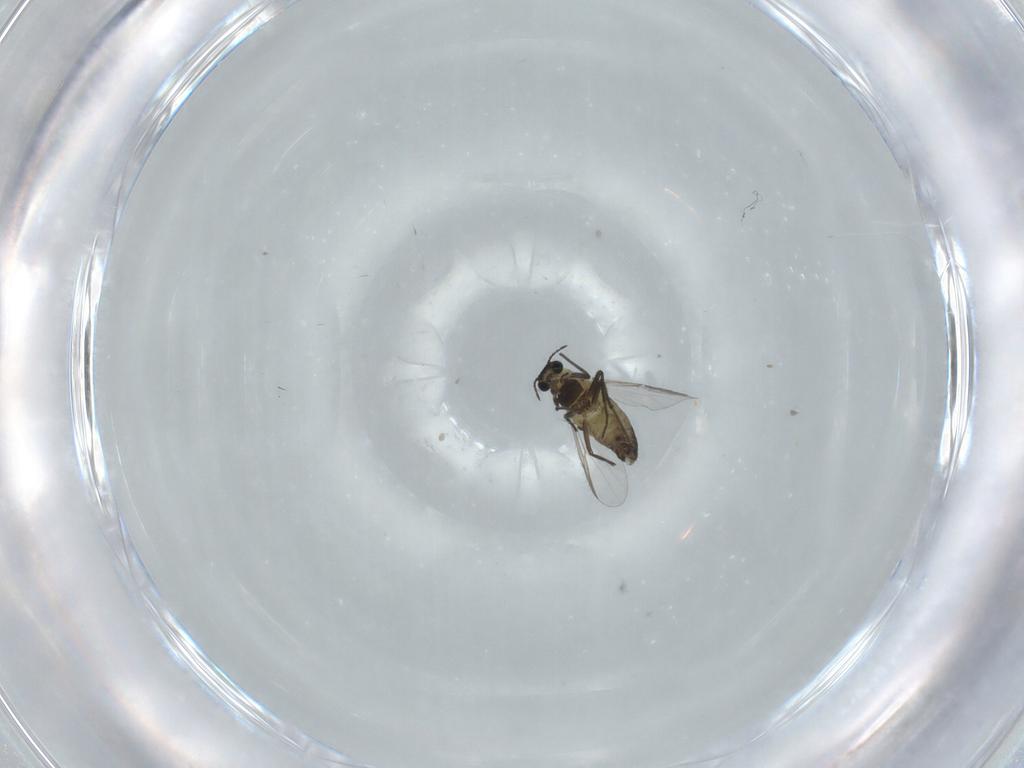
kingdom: Animalia
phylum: Arthropoda
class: Insecta
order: Diptera
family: Chironomidae
